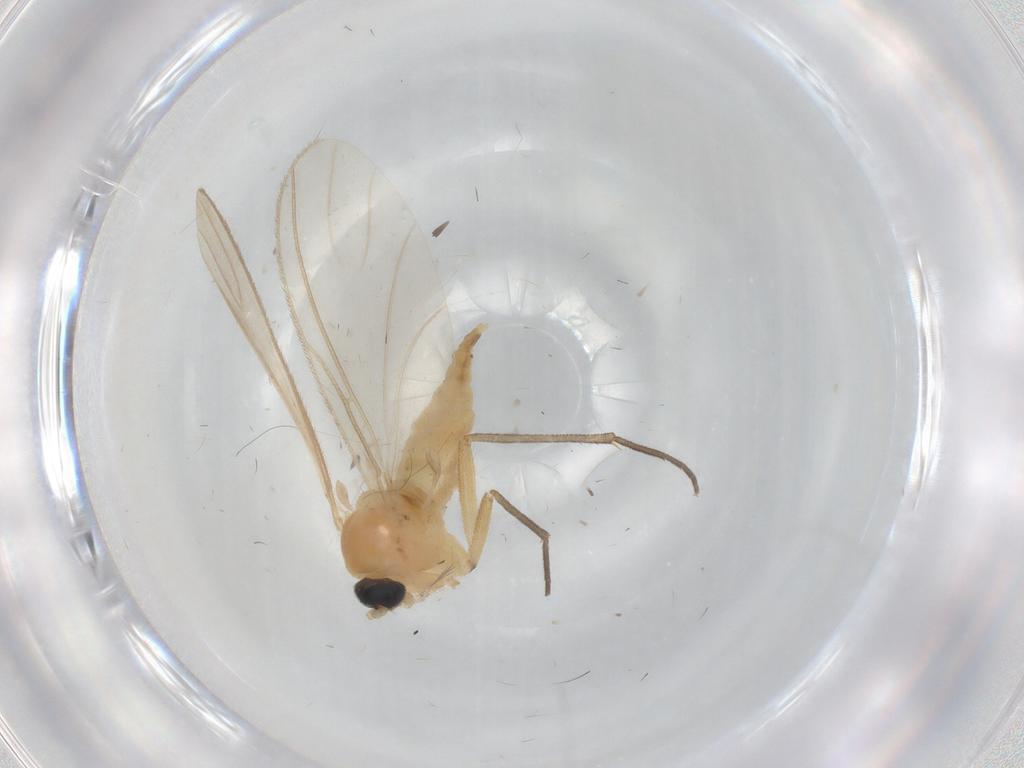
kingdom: Animalia
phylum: Arthropoda
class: Insecta
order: Diptera
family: Sciaridae
